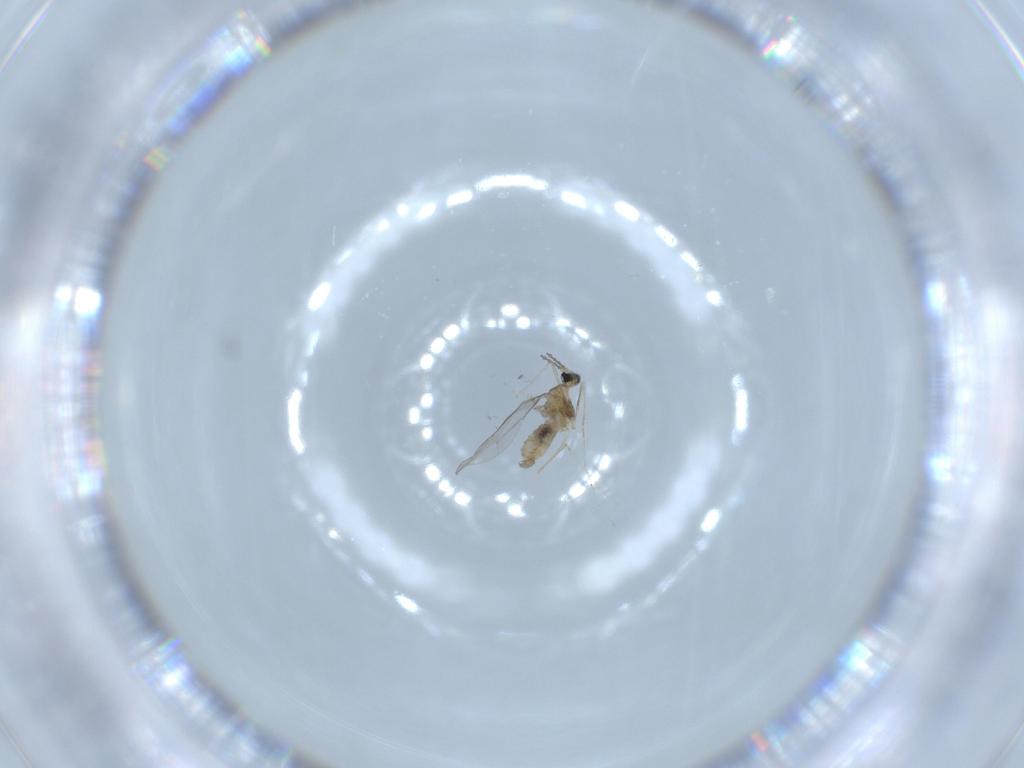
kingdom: Animalia
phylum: Arthropoda
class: Insecta
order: Diptera
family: Cecidomyiidae
